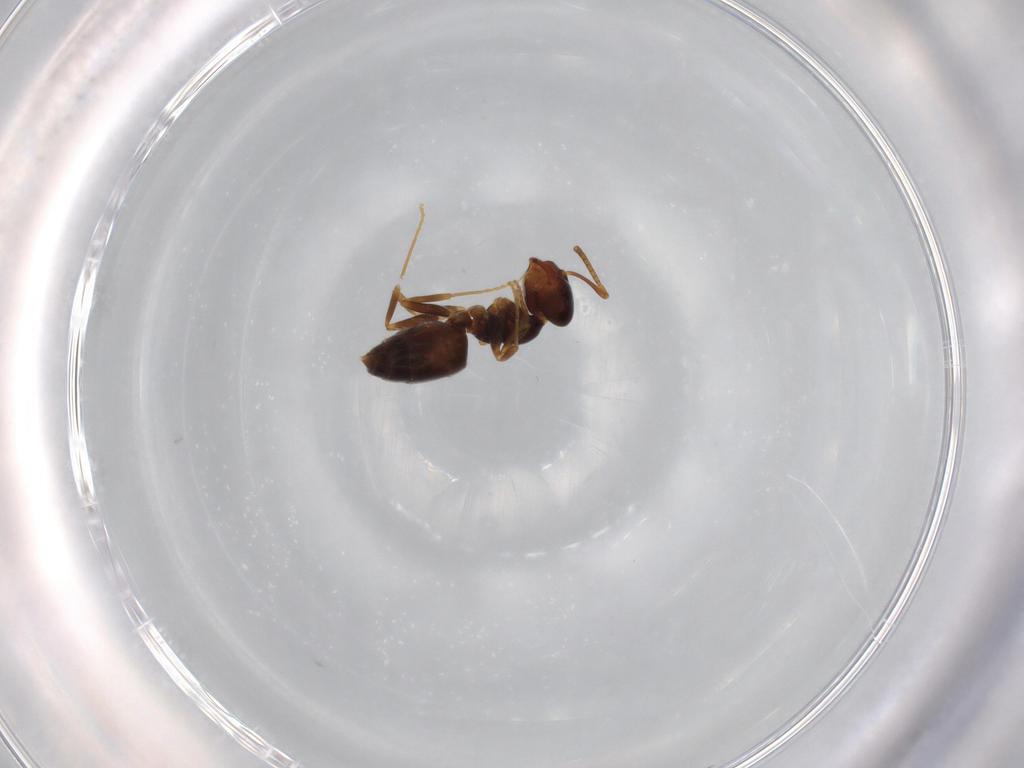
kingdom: Animalia
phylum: Arthropoda
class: Insecta
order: Hymenoptera
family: Formicidae
